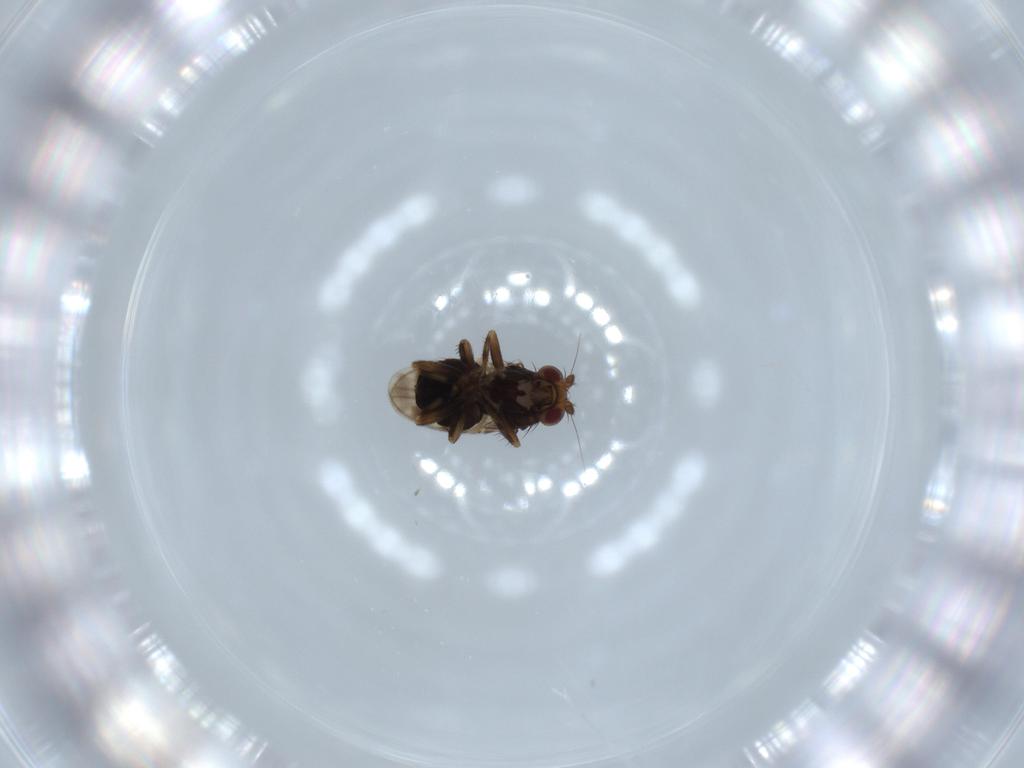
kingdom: Animalia
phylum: Arthropoda
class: Insecta
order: Diptera
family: Sphaeroceridae
